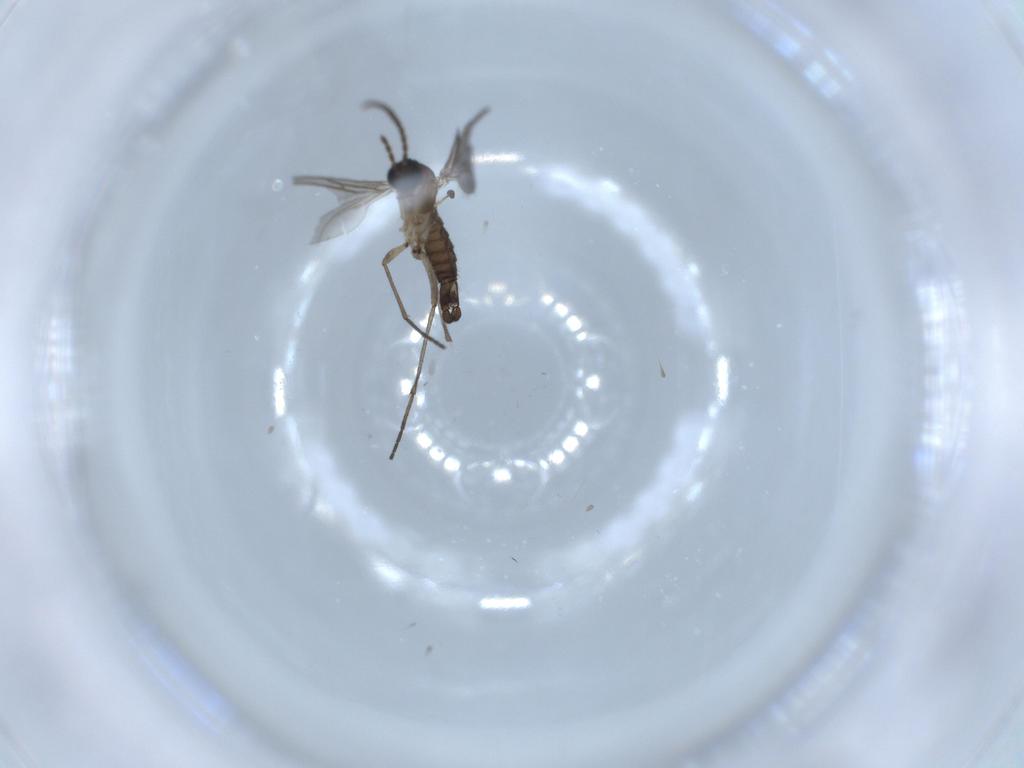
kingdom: Animalia
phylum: Arthropoda
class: Insecta
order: Diptera
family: Sciaridae
